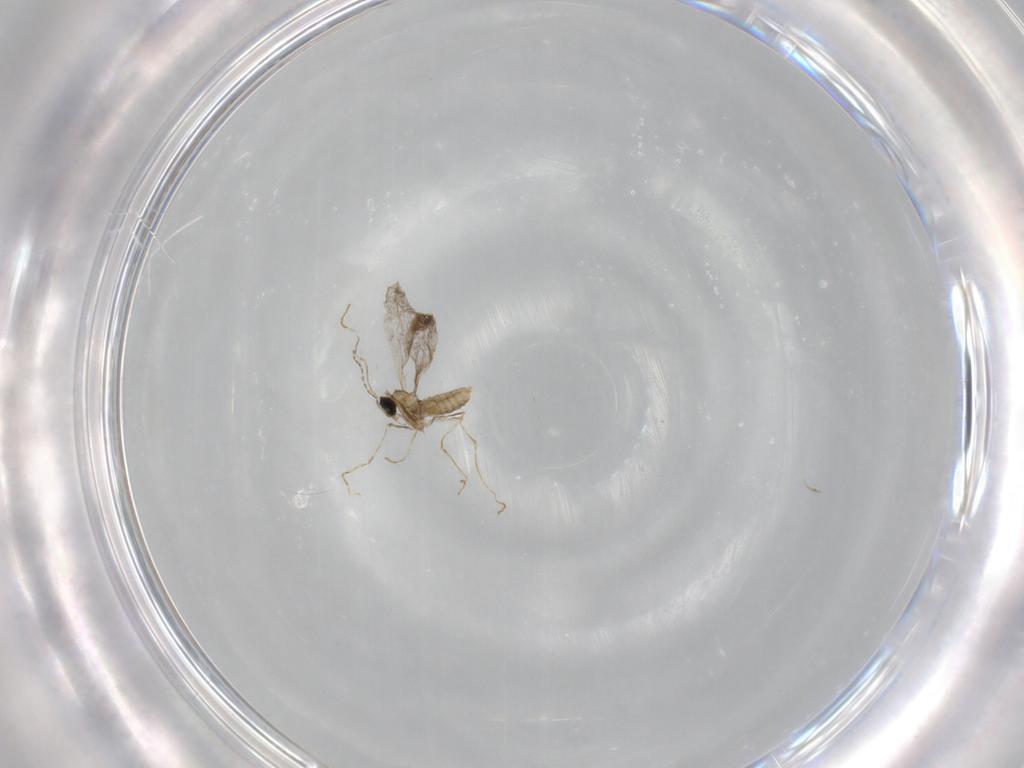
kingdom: Animalia
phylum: Arthropoda
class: Insecta
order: Diptera
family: Cecidomyiidae
